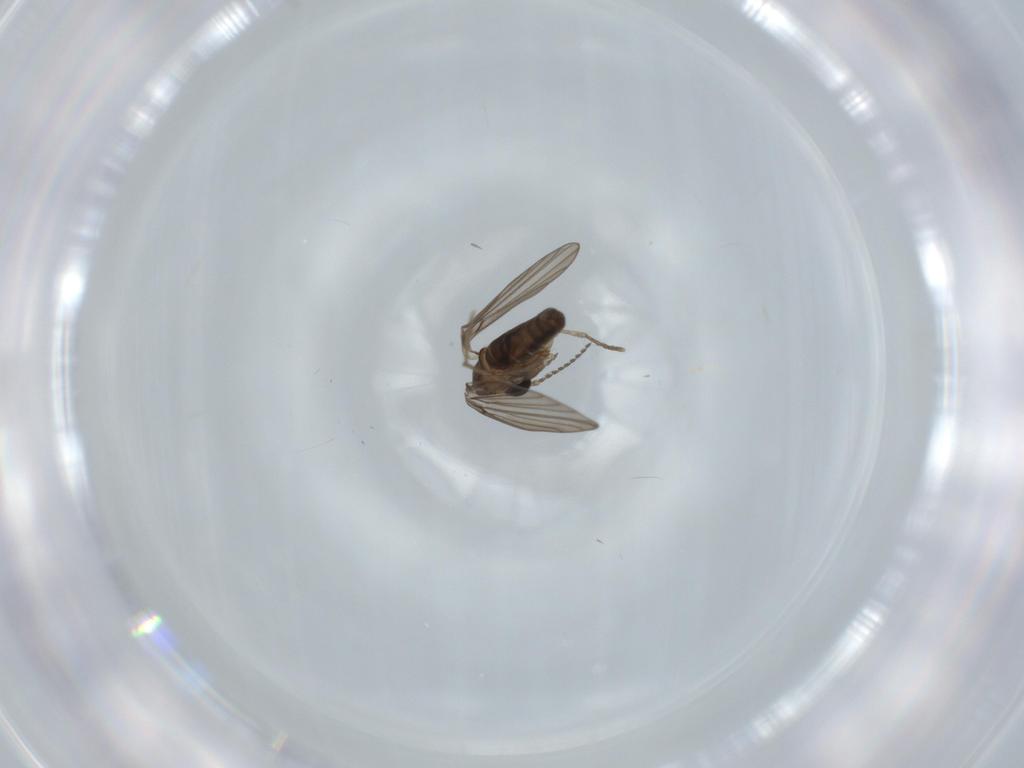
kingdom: Animalia
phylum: Arthropoda
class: Insecta
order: Diptera
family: Psychodidae
